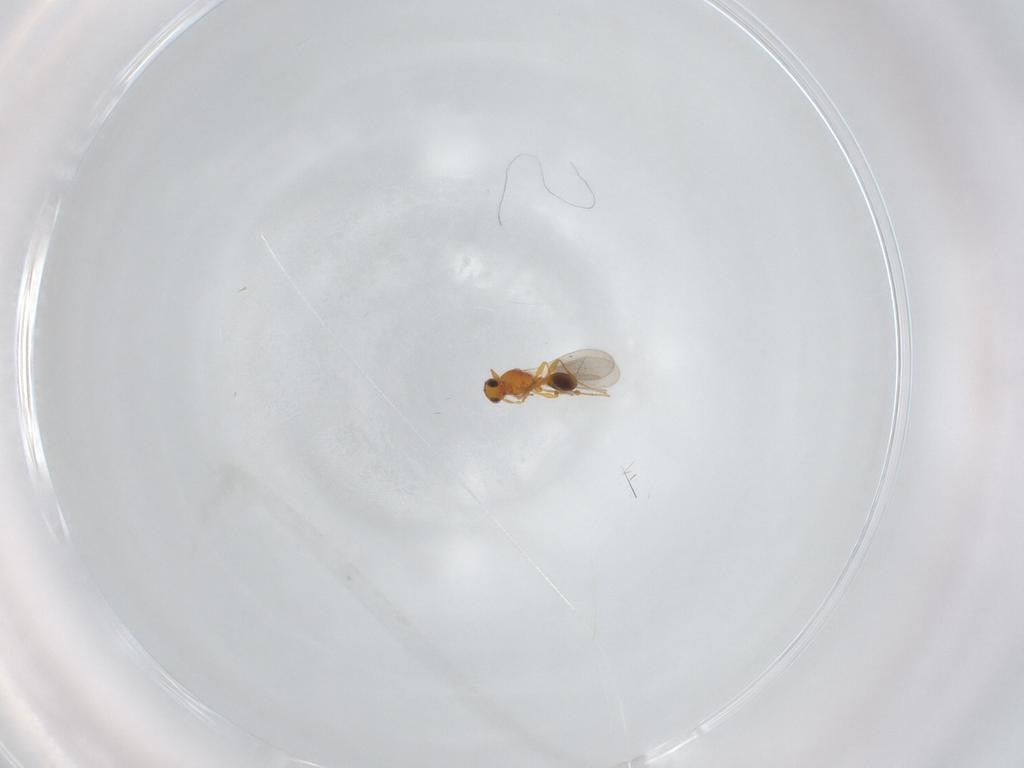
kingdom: Animalia
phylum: Arthropoda
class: Insecta
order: Hymenoptera
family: Platygastridae
